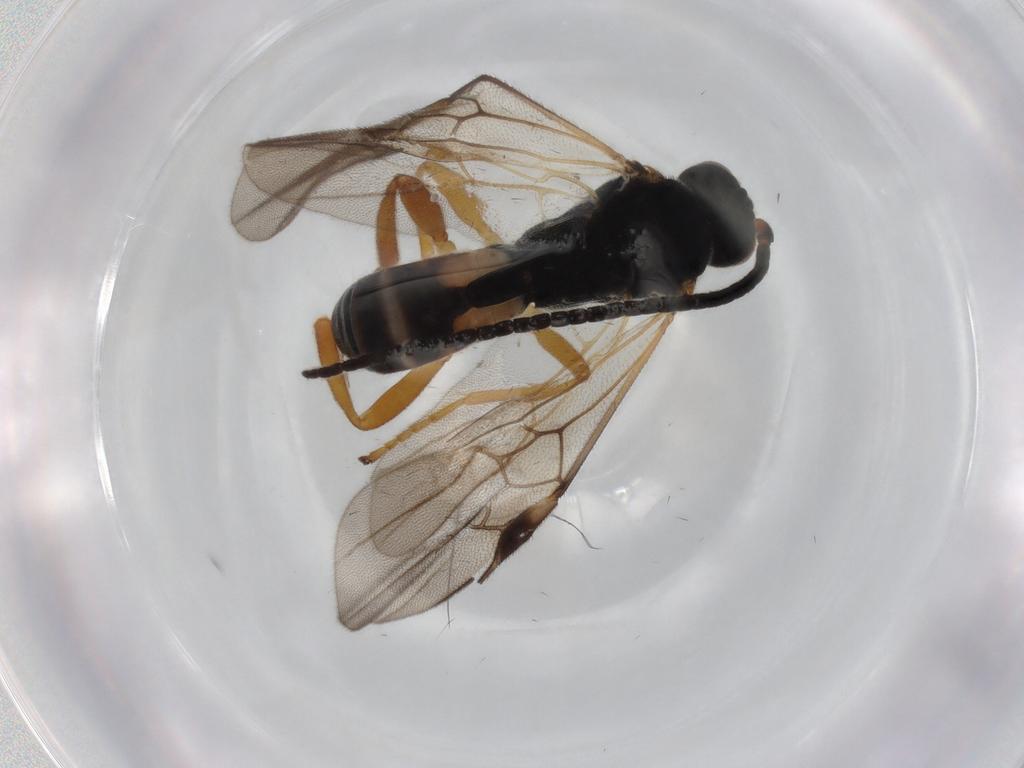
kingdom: Animalia
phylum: Arthropoda
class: Insecta
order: Hymenoptera
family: Braconidae
